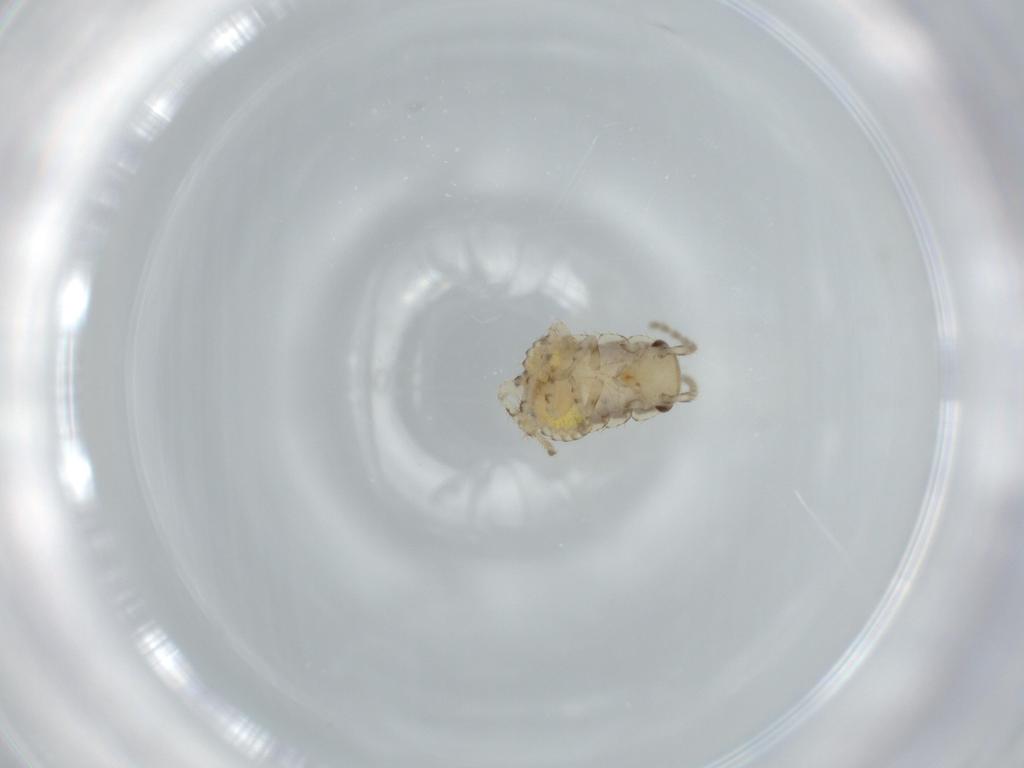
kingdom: Animalia
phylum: Arthropoda
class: Insecta
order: Blattodea
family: Ectobiidae
